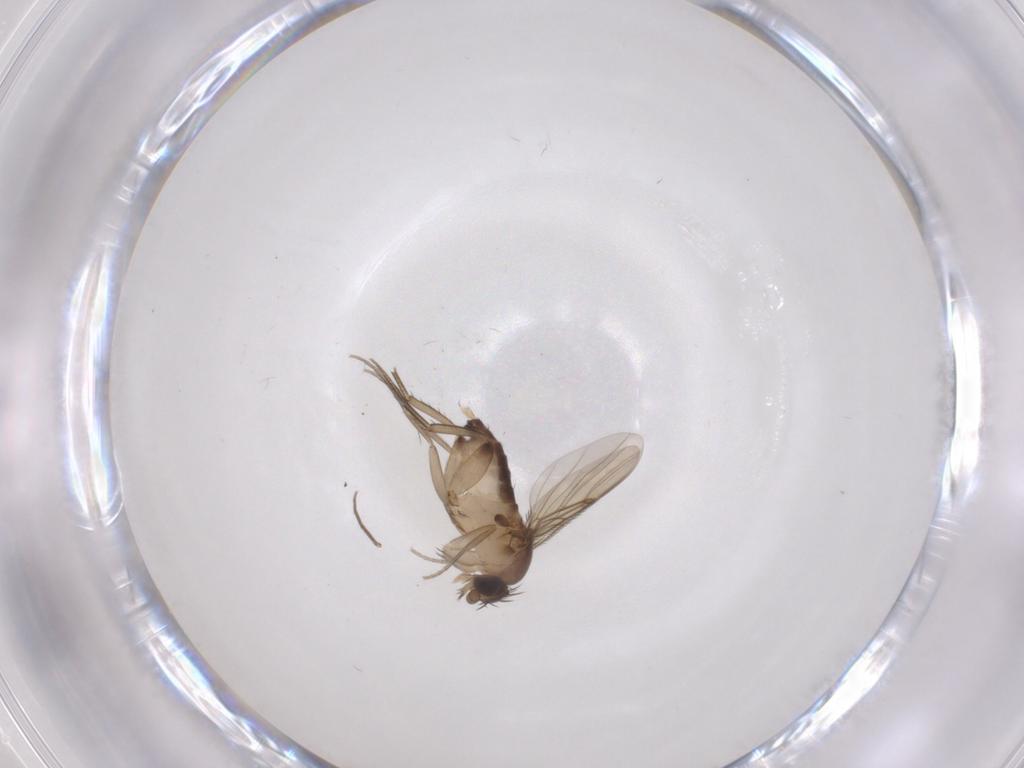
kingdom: Animalia
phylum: Arthropoda
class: Insecta
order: Diptera
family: Phoridae
